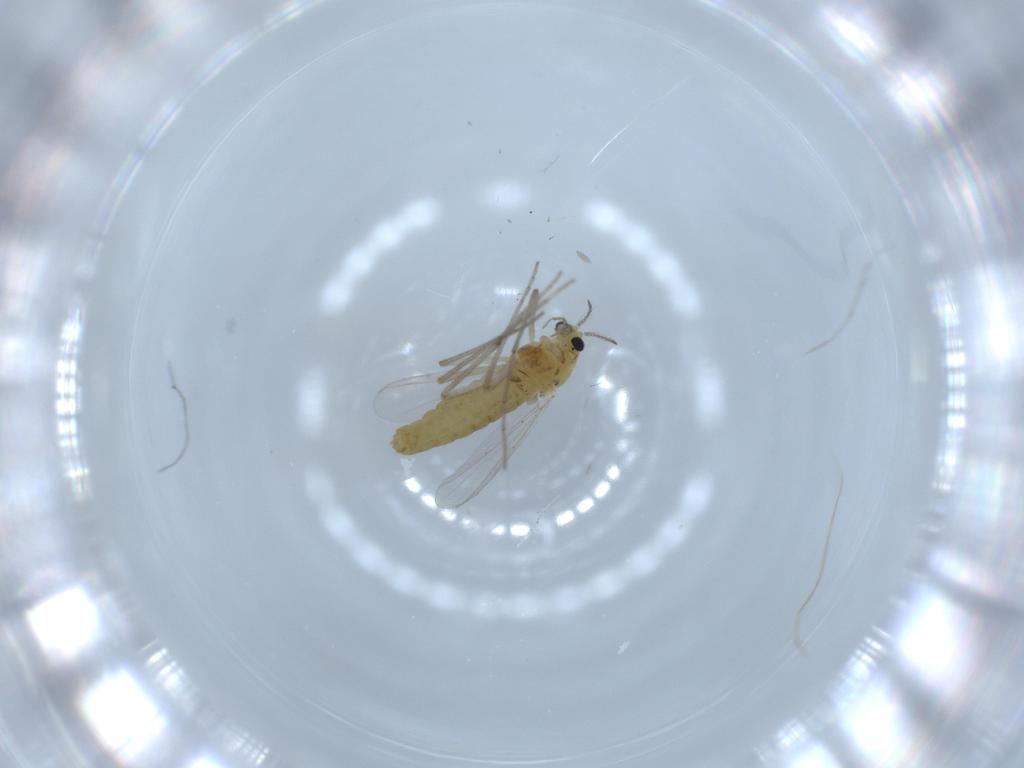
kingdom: Animalia
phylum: Arthropoda
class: Insecta
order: Diptera
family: Chironomidae
